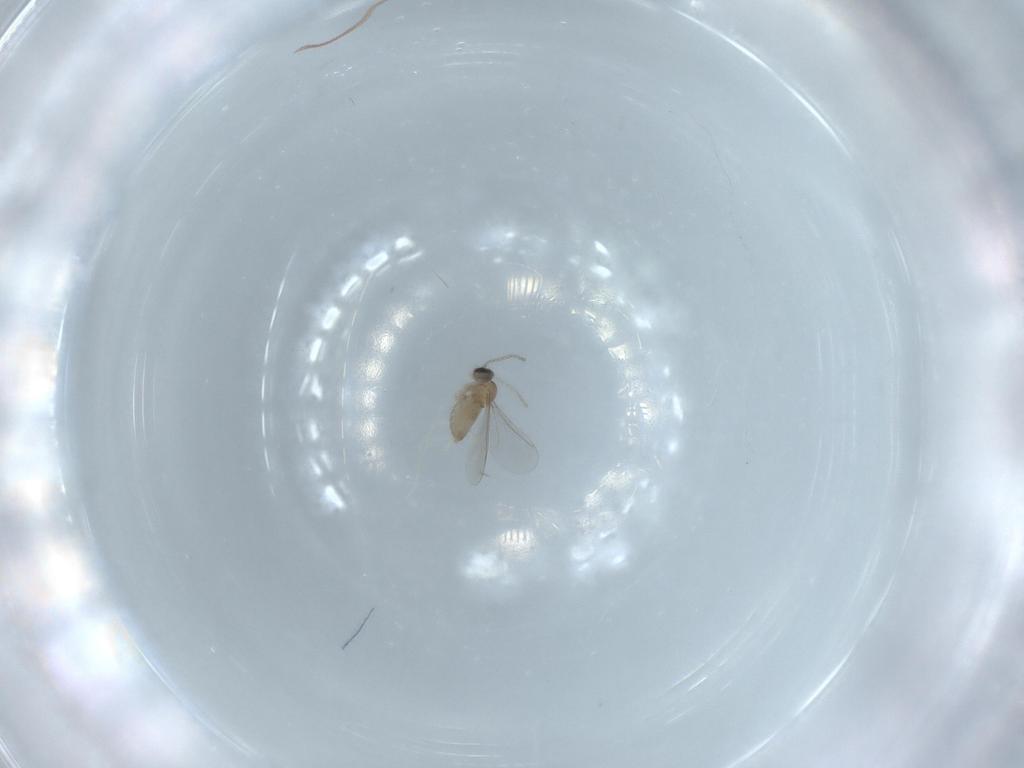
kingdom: Animalia
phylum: Arthropoda
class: Insecta
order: Diptera
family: Cecidomyiidae
